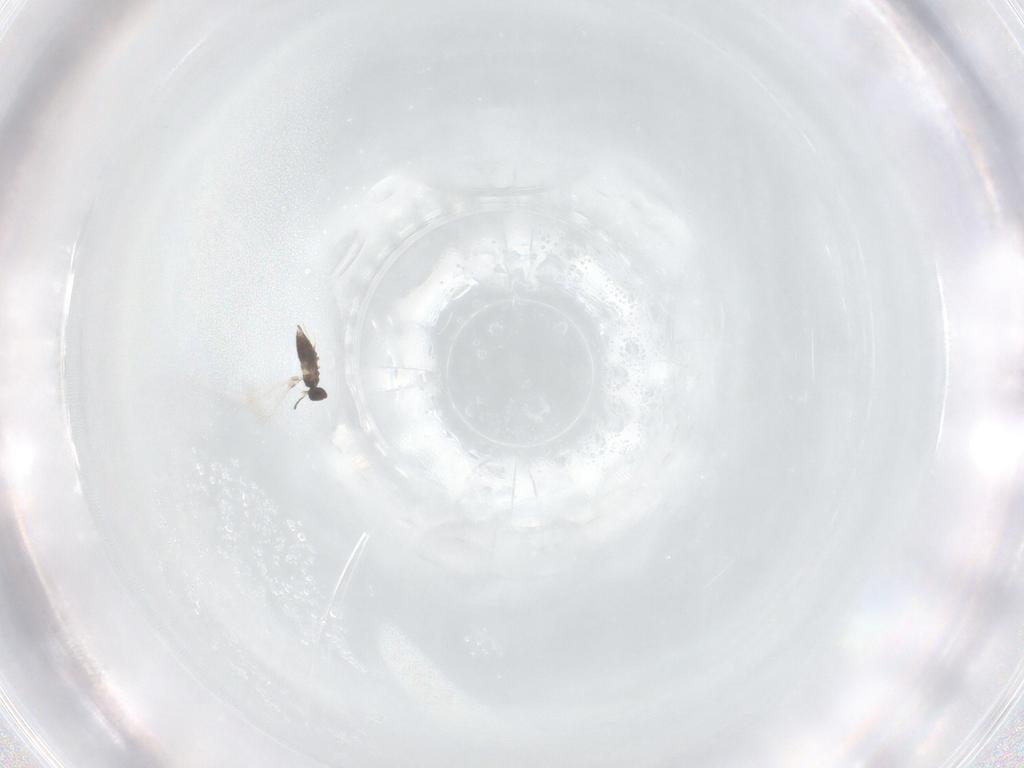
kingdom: Animalia
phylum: Arthropoda
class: Insecta
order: Hymenoptera
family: Mymaridae
